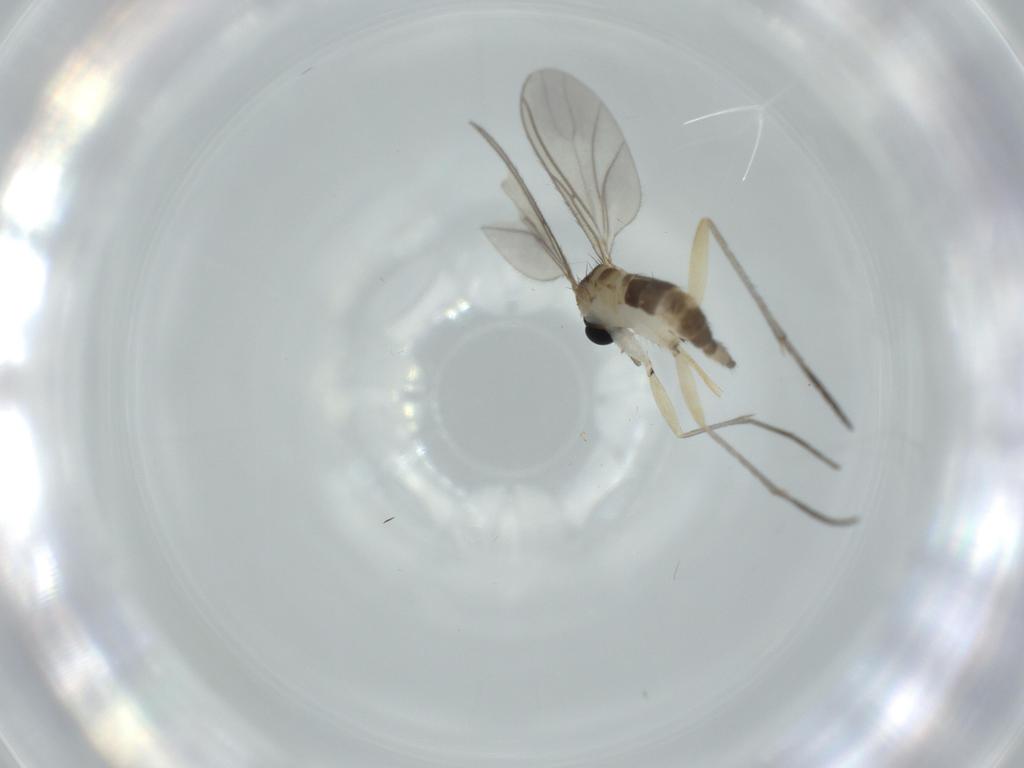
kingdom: Animalia
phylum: Arthropoda
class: Insecta
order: Diptera
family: Sciaridae
